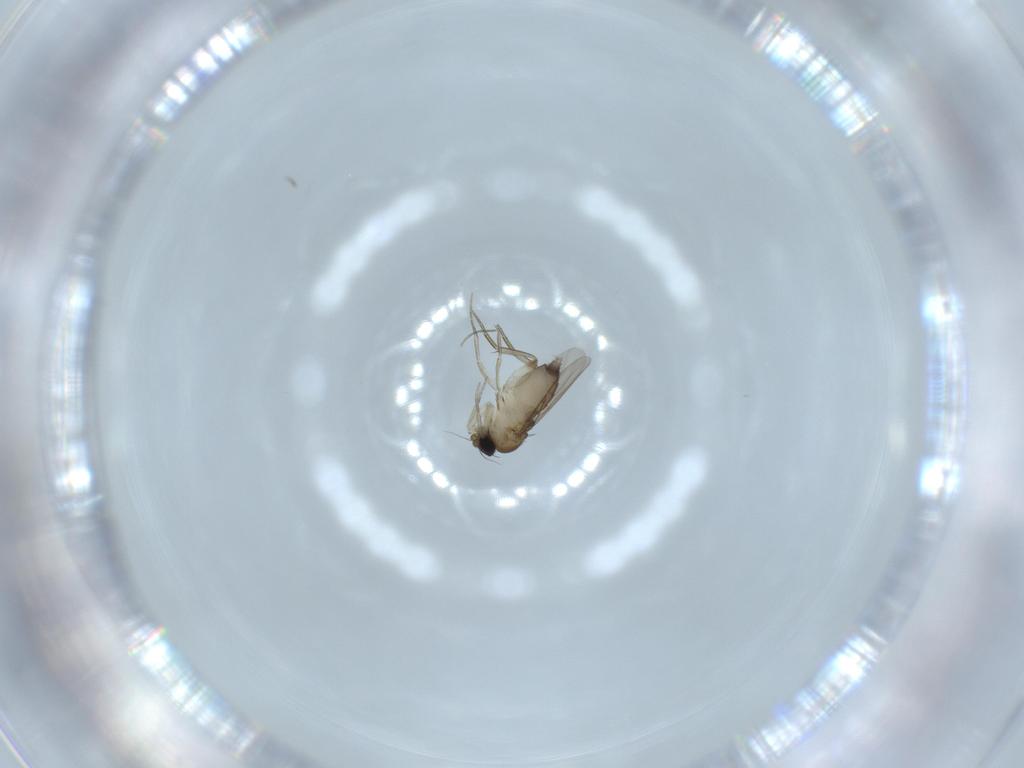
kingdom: Animalia
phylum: Arthropoda
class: Insecta
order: Diptera
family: Phoridae
